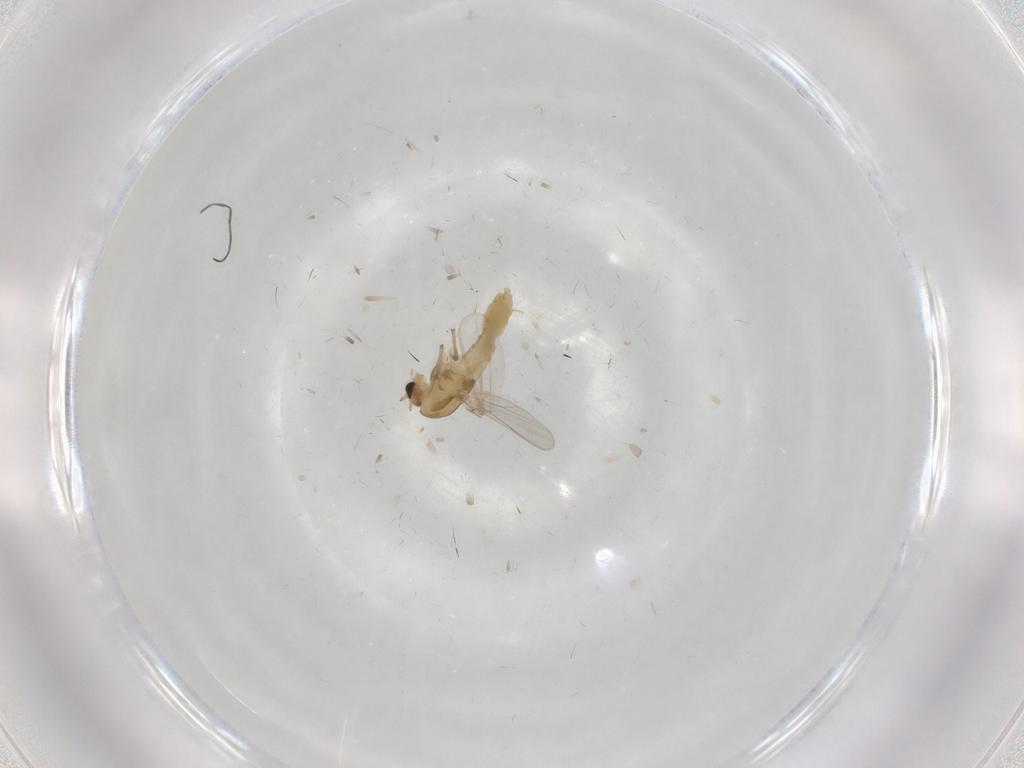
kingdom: Animalia
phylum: Arthropoda
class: Insecta
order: Diptera
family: Chironomidae
